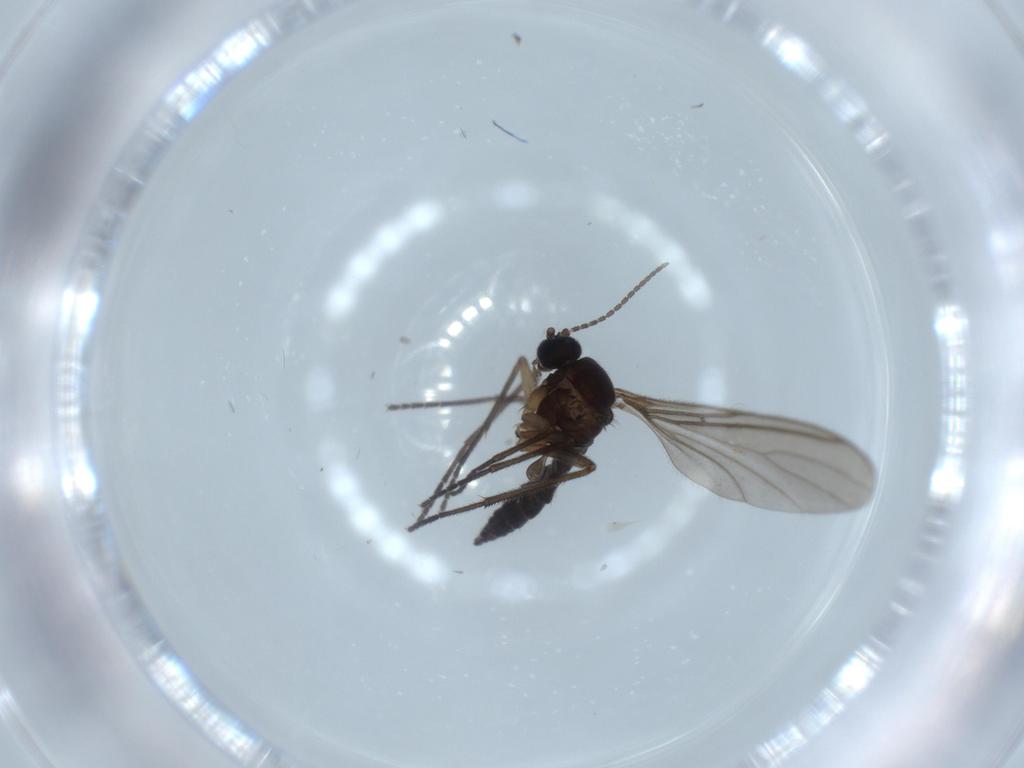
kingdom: Animalia
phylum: Arthropoda
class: Insecta
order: Diptera
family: Sciaridae
